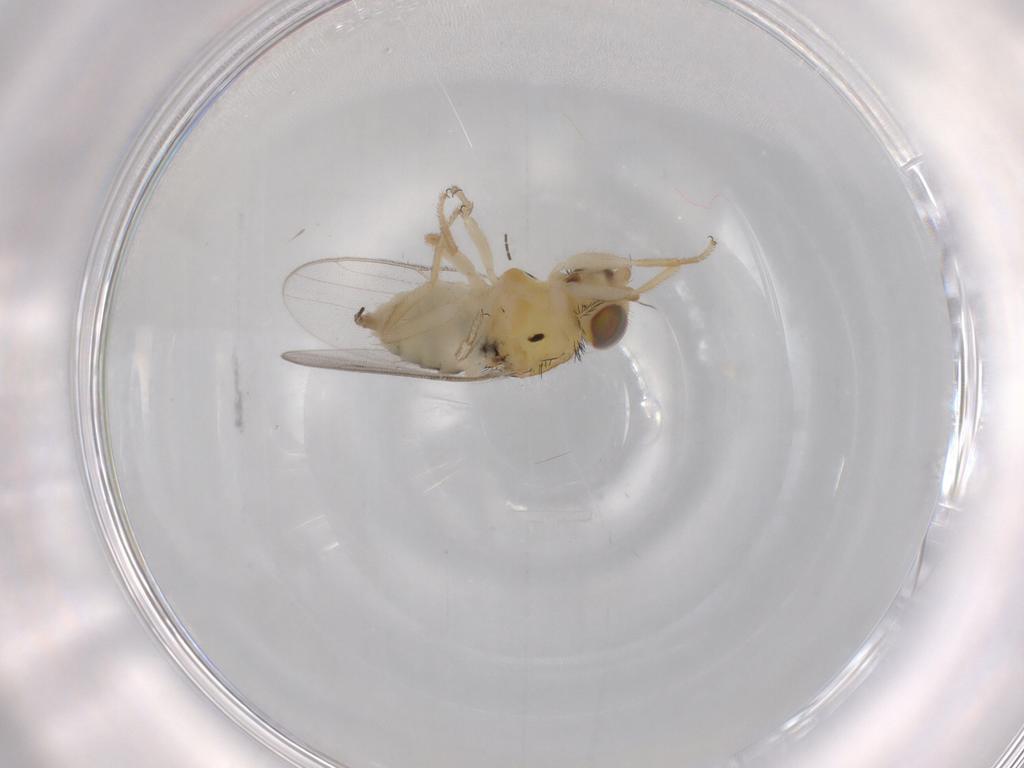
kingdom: Animalia
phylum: Arthropoda
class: Insecta
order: Diptera
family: Chloropidae
